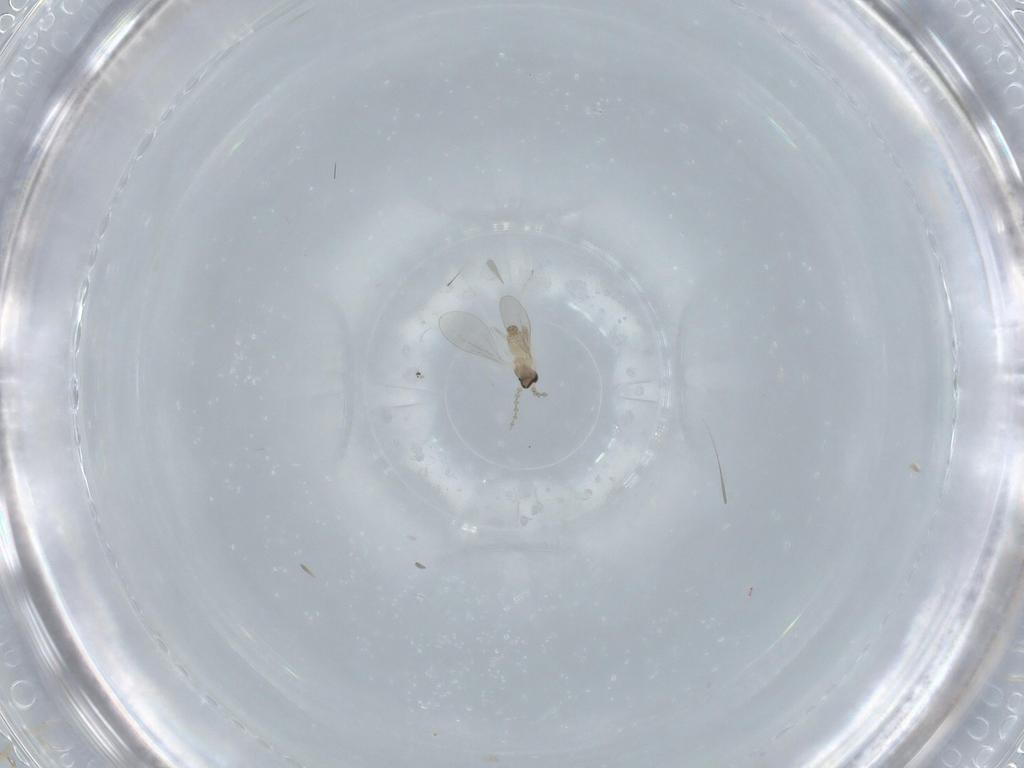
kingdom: Animalia
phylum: Arthropoda
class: Insecta
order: Diptera
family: Cecidomyiidae
